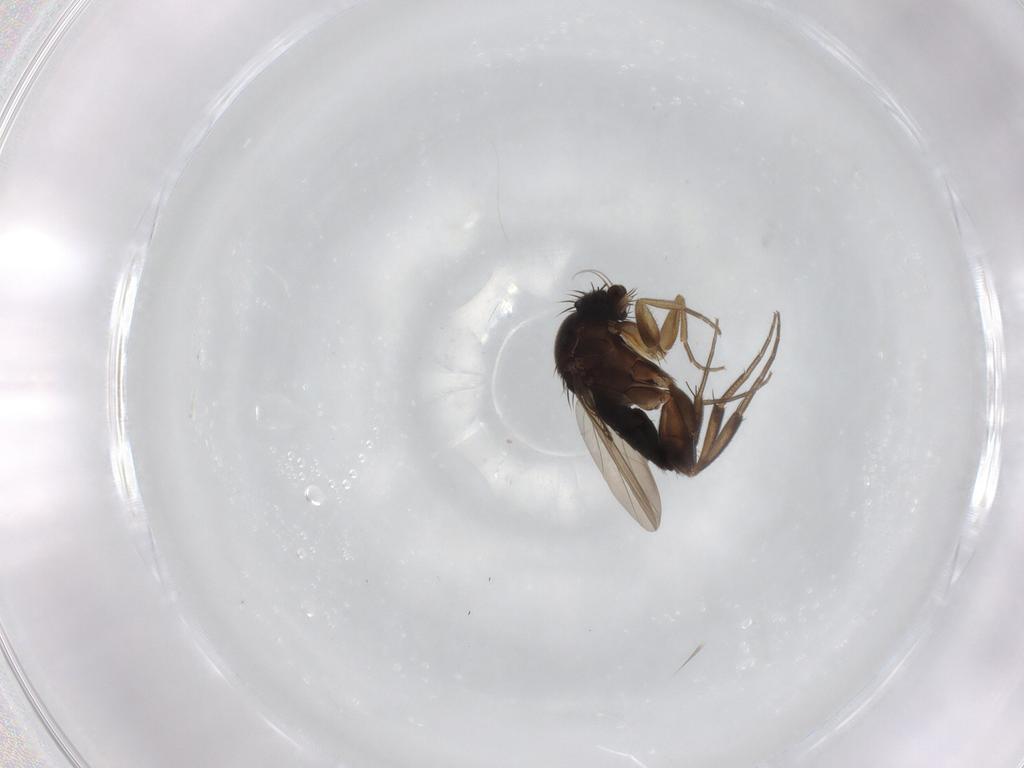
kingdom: Animalia
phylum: Arthropoda
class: Insecta
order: Diptera
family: Phoridae
